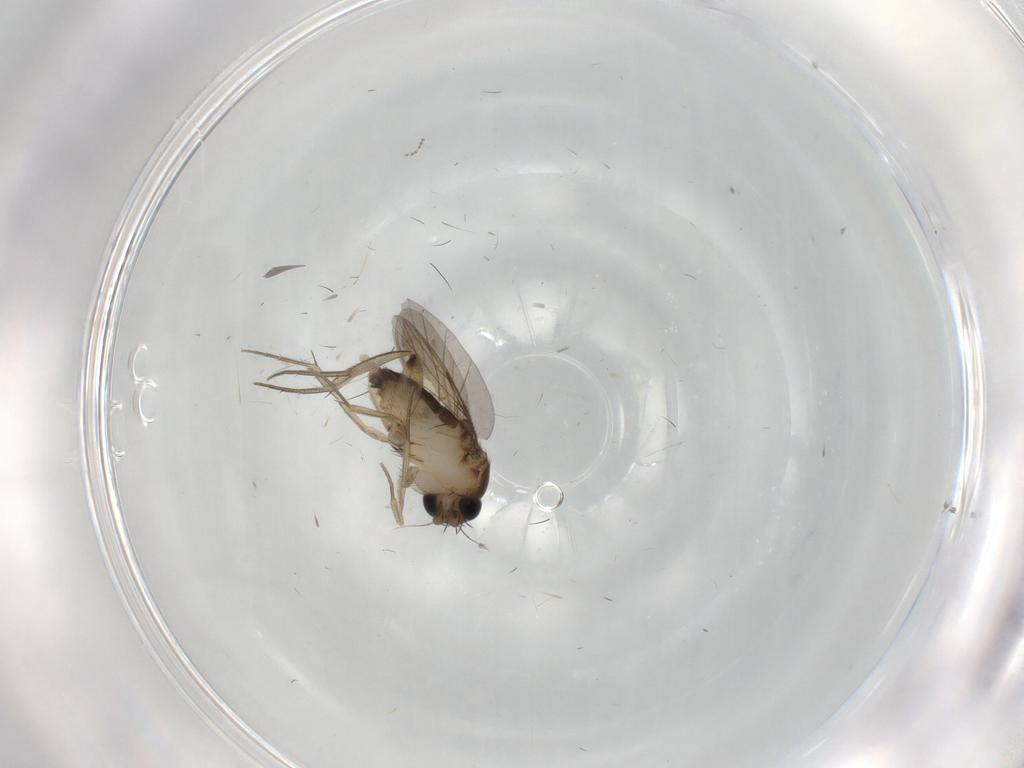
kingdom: Animalia
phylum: Arthropoda
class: Insecta
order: Diptera
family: Phoridae
